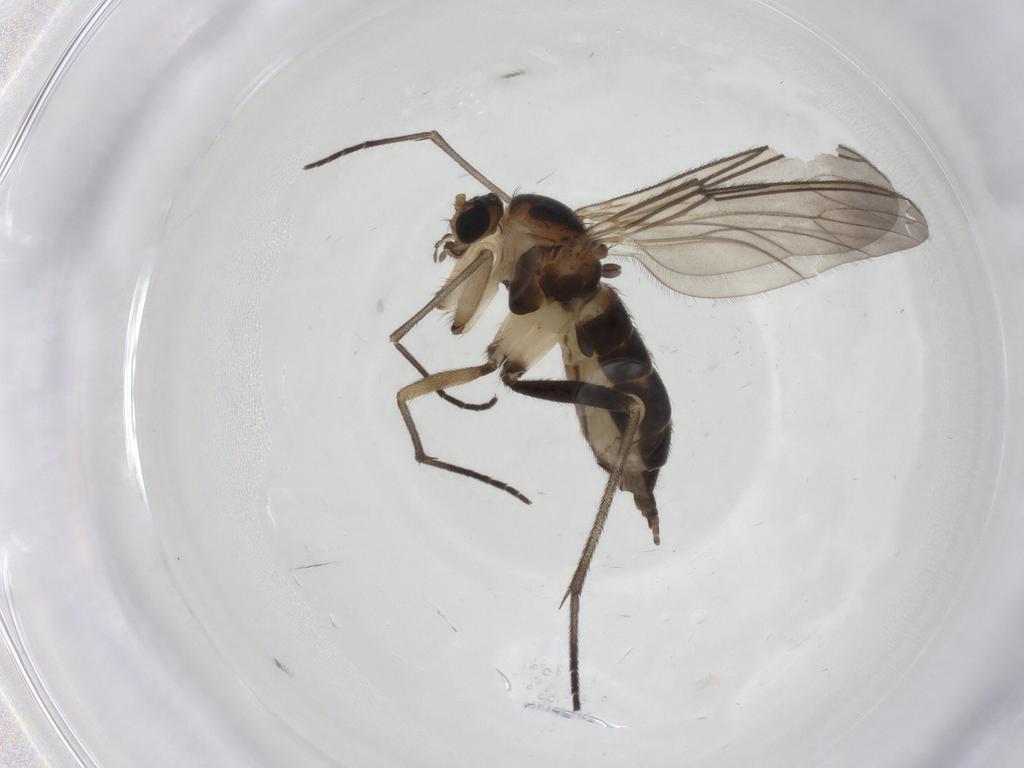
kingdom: Animalia
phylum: Arthropoda
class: Insecta
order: Diptera
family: Sciaridae
